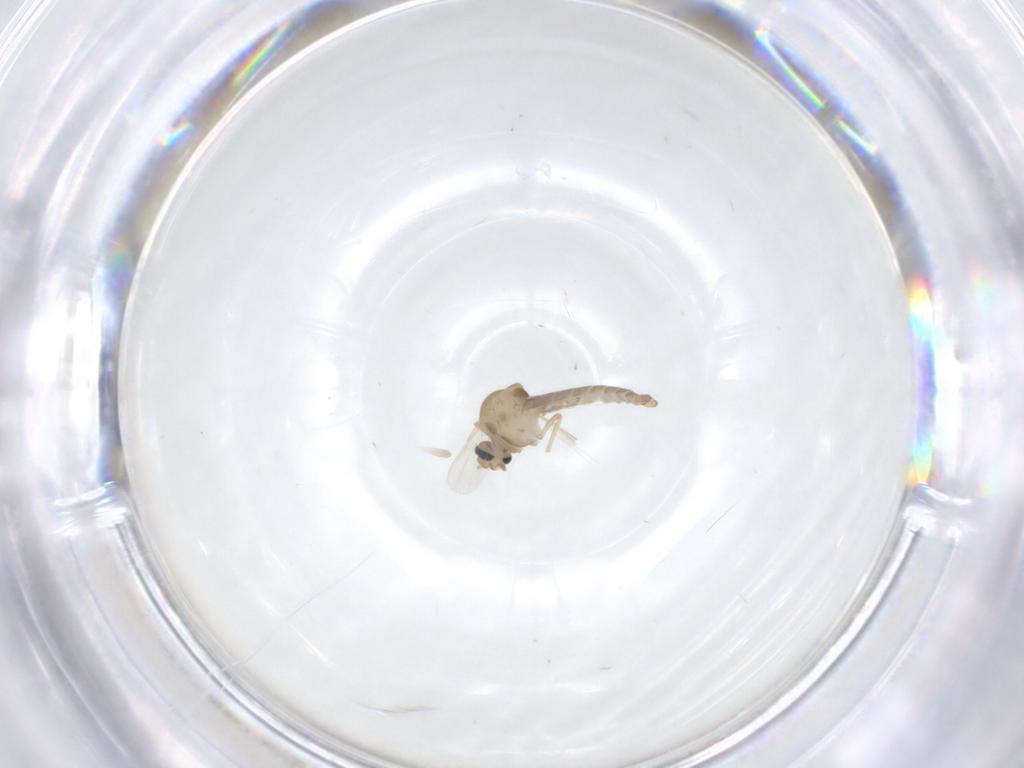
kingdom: Animalia
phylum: Arthropoda
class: Insecta
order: Diptera
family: Ceratopogonidae
